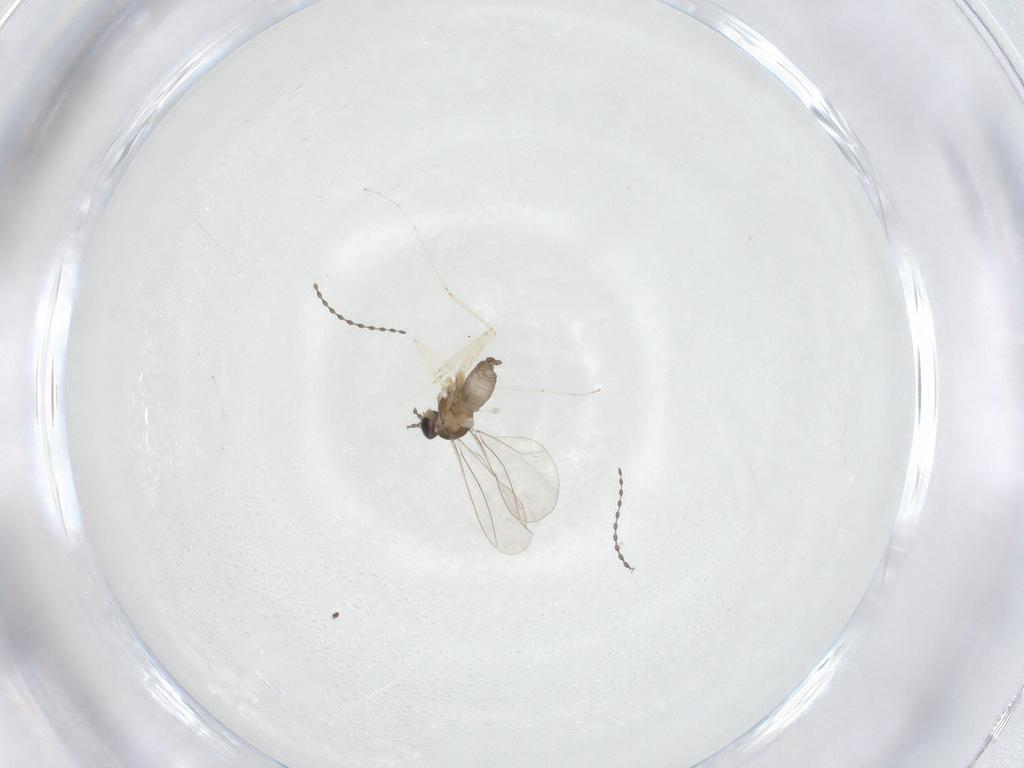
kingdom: Animalia
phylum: Arthropoda
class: Insecta
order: Diptera
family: Cecidomyiidae
